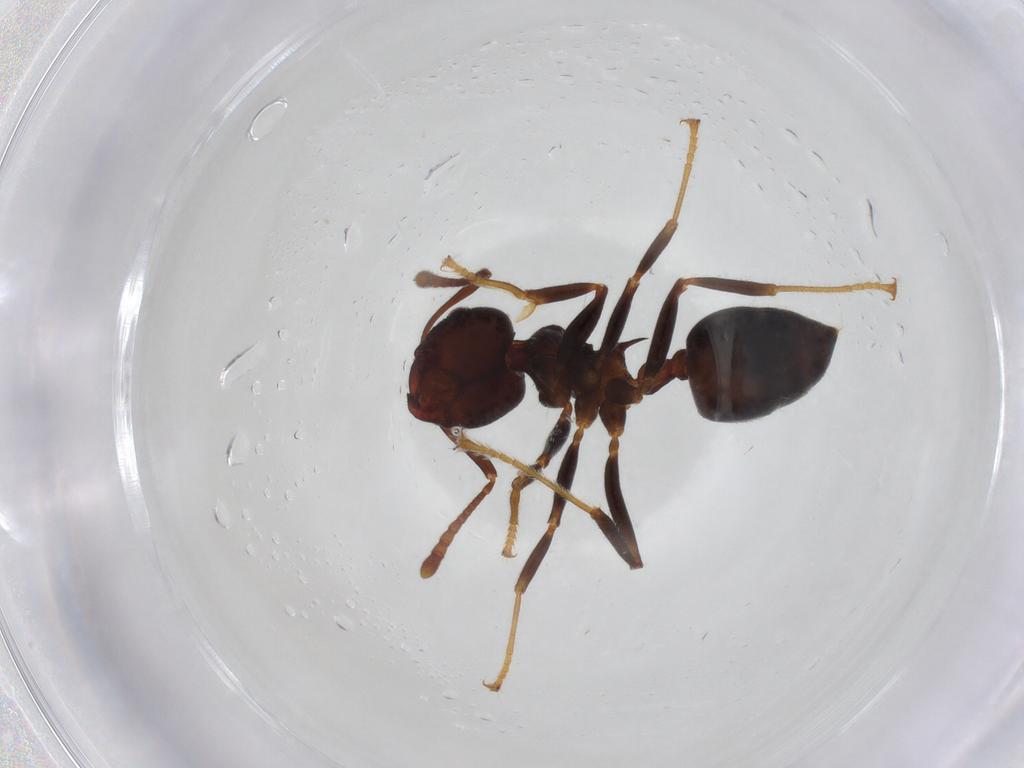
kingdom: Animalia
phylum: Arthropoda
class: Insecta
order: Hymenoptera
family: Formicidae
